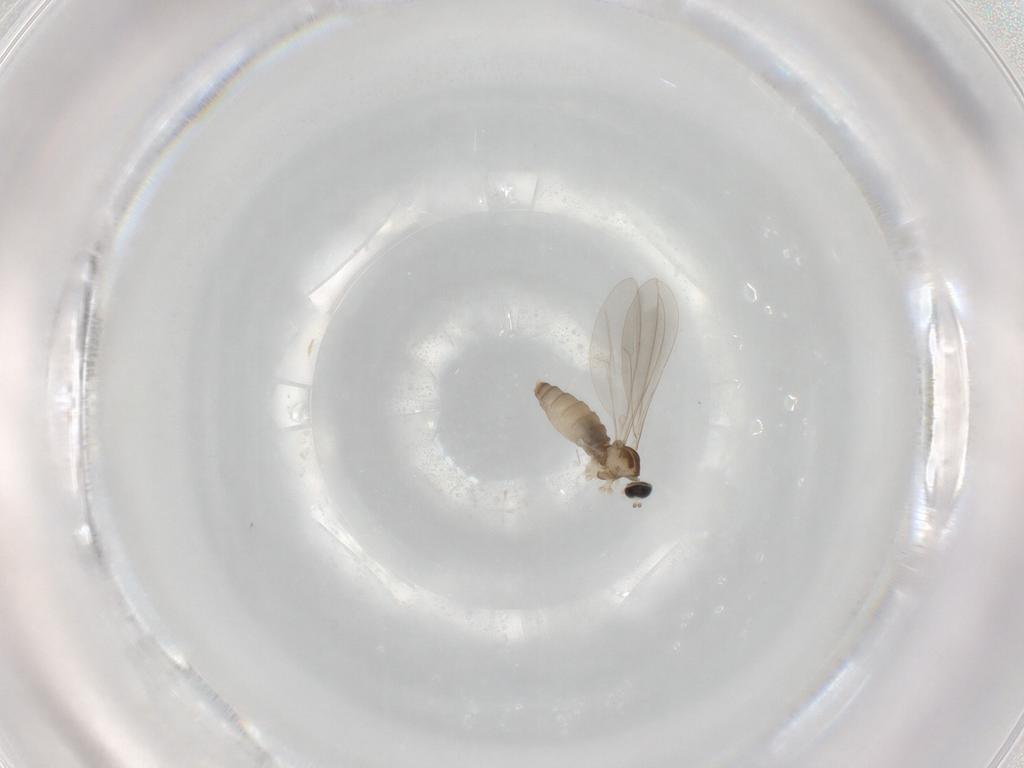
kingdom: Animalia
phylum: Arthropoda
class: Insecta
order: Diptera
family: Cecidomyiidae
